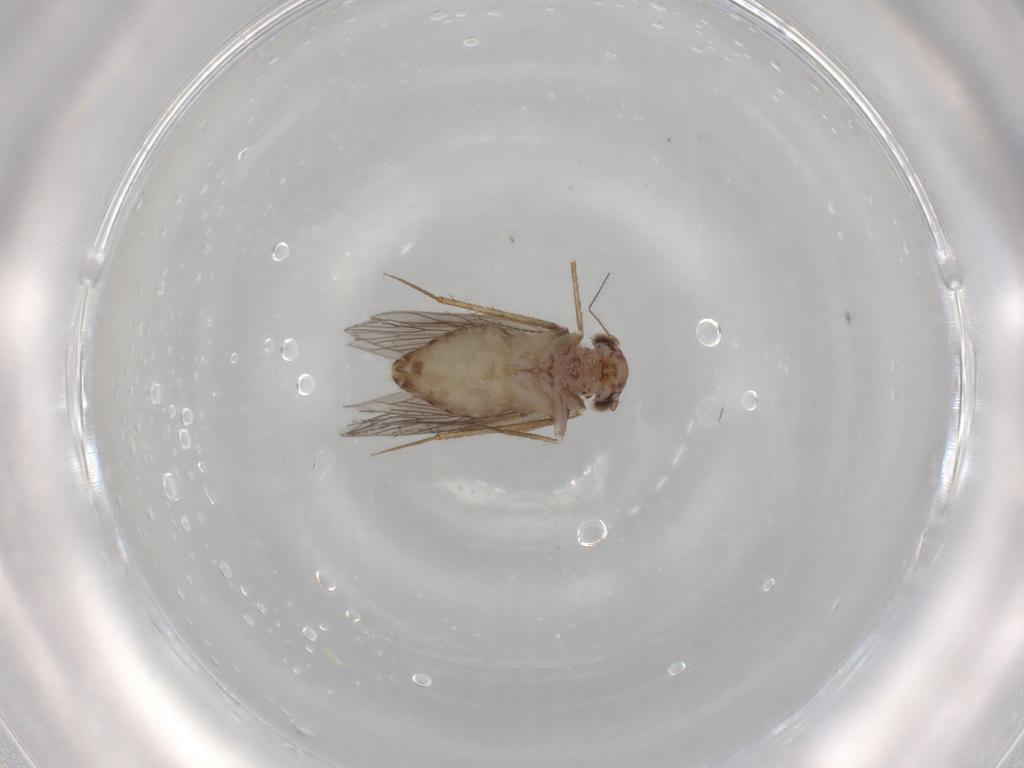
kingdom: Animalia
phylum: Arthropoda
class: Insecta
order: Psocodea
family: Lepidopsocidae
